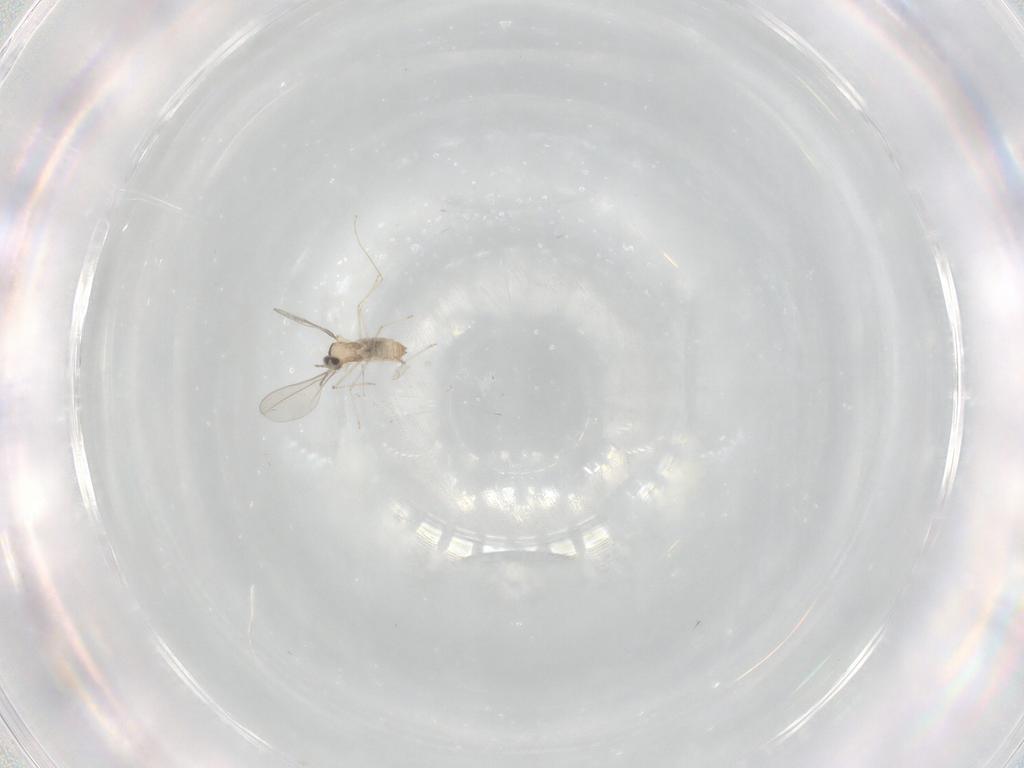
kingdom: Animalia
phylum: Arthropoda
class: Insecta
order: Diptera
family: Cecidomyiidae
